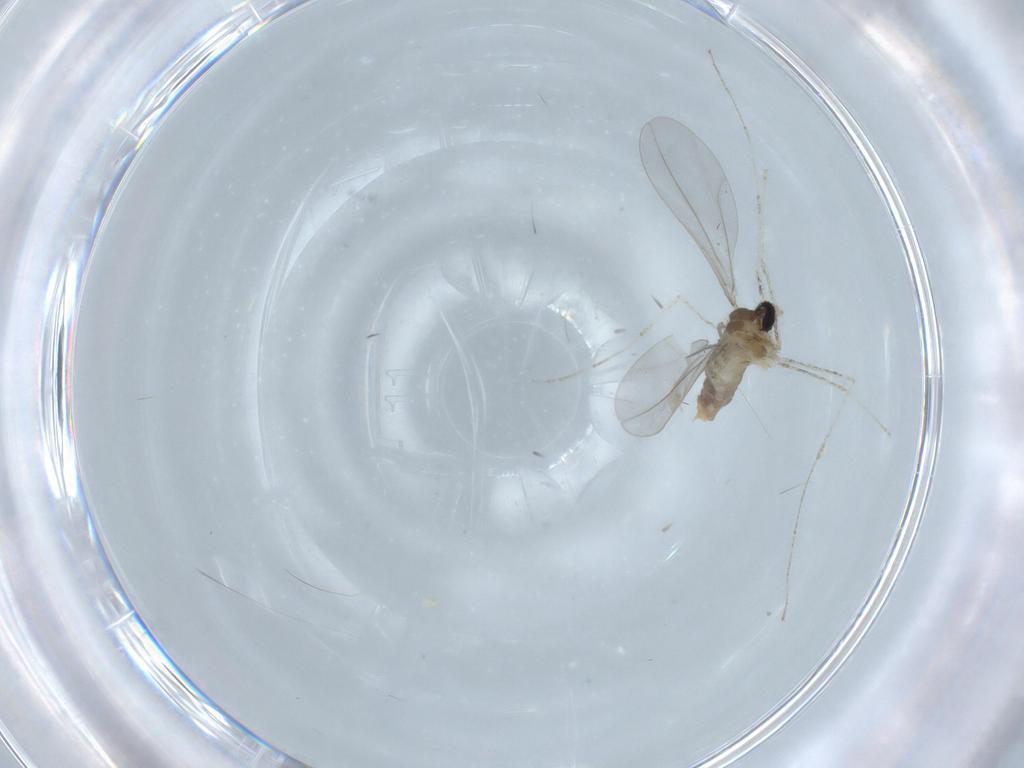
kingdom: Animalia
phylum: Arthropoda
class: Insecta
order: Diptera
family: Cecidomyiidae
